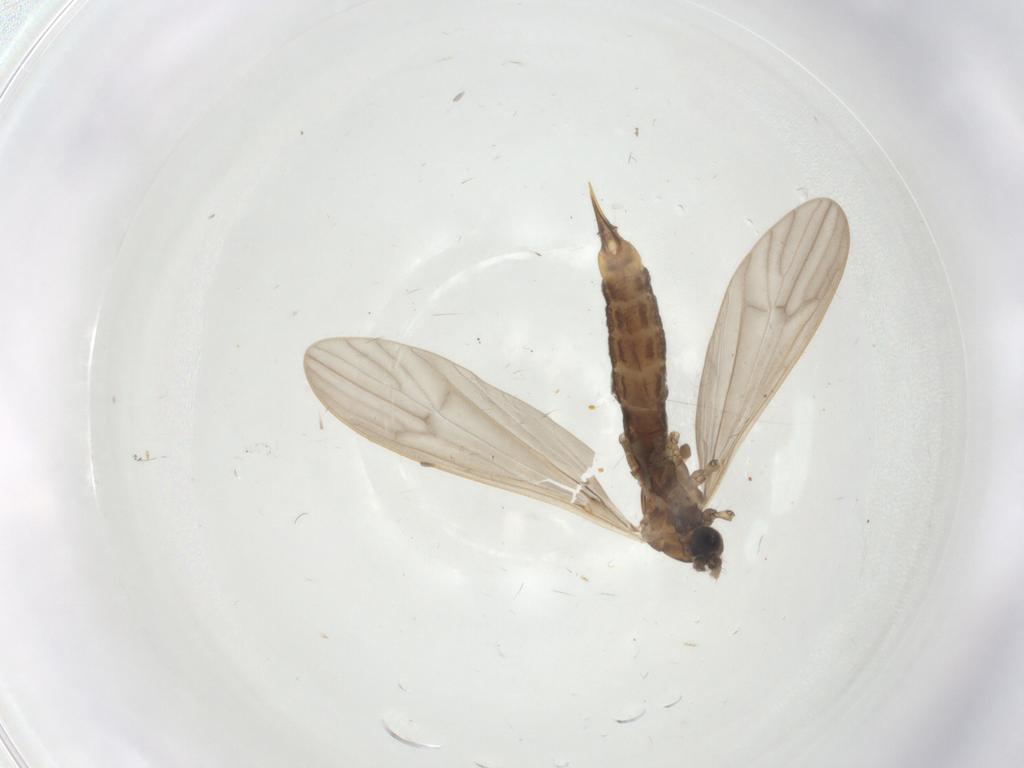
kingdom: Animalia
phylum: Arthropoda
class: Insecta
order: Diptera
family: Limoniidae
